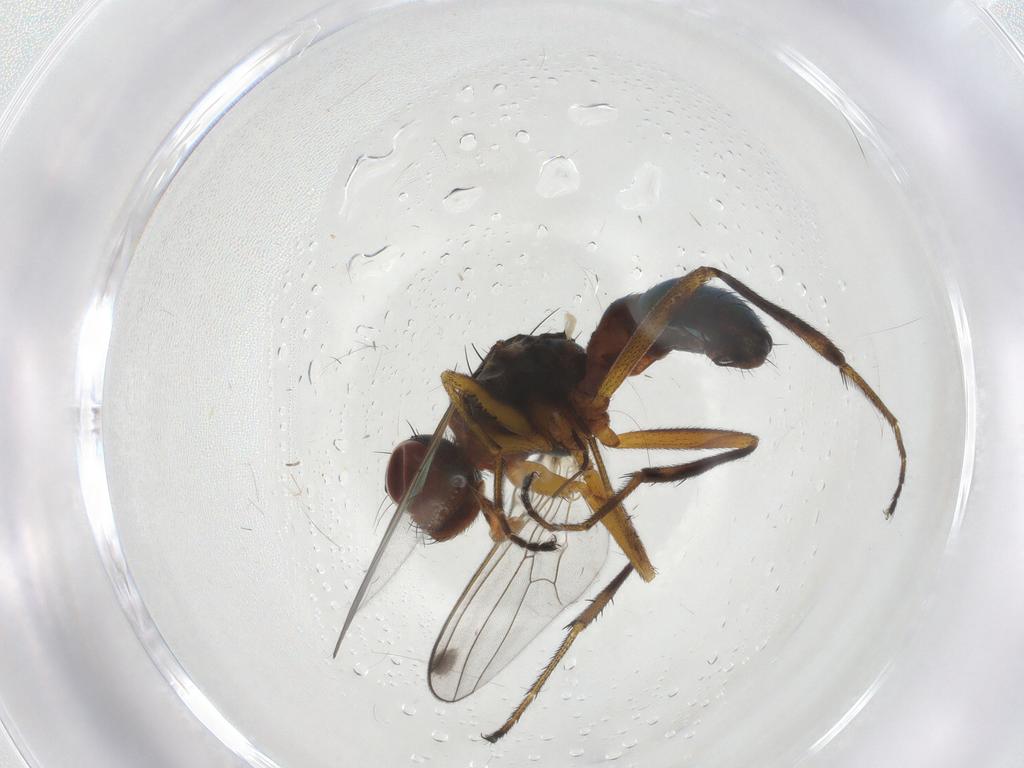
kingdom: Animalia
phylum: Arthropoda
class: Insecta
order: Diptera
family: Sepsidae
